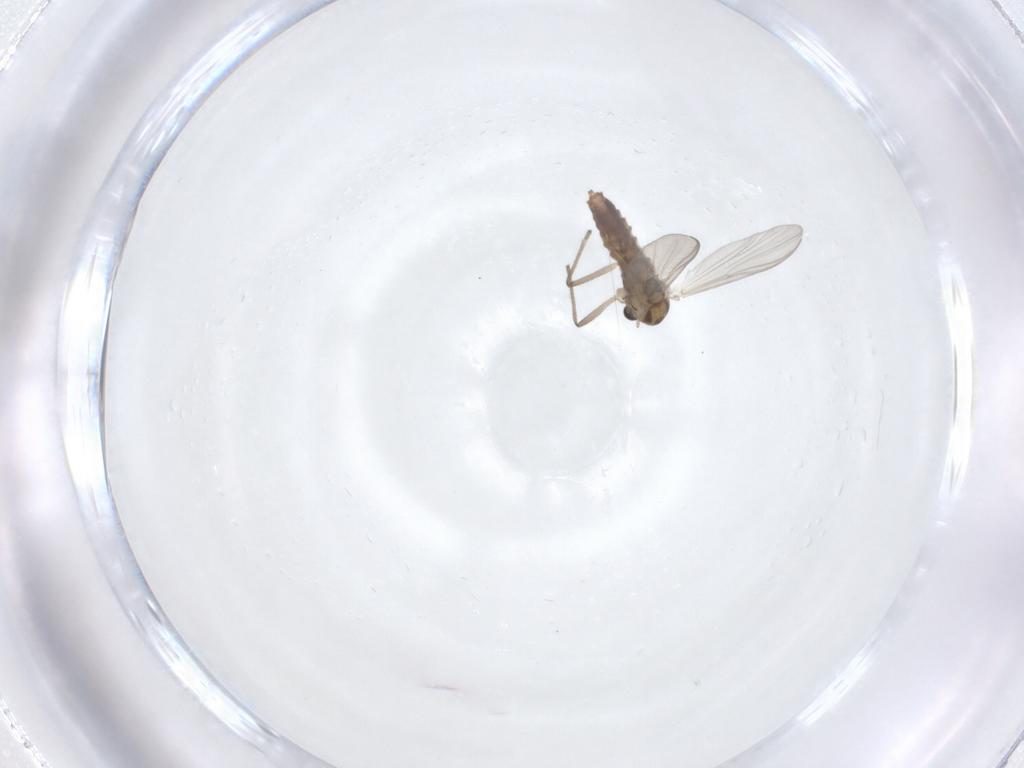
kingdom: Animalia
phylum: Arthropoda
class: Insecta
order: Diptera
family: Chironomidae
